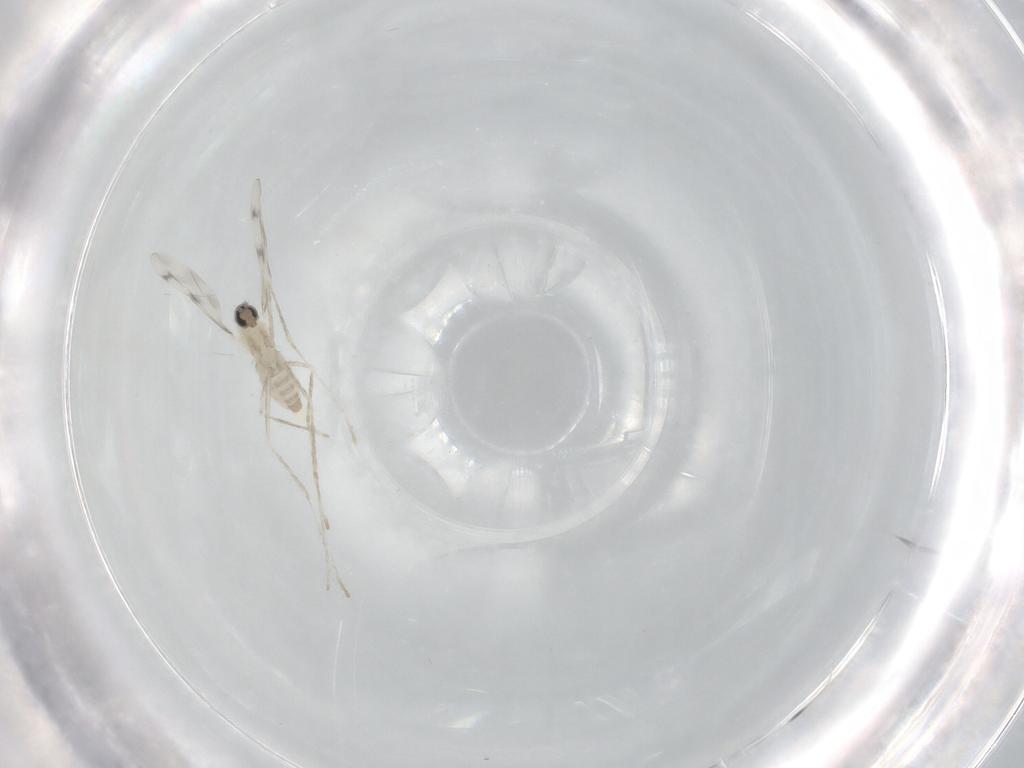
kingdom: Animalia
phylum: Arthropoda
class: Insecta
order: Diptera
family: Cecidomyiidae
